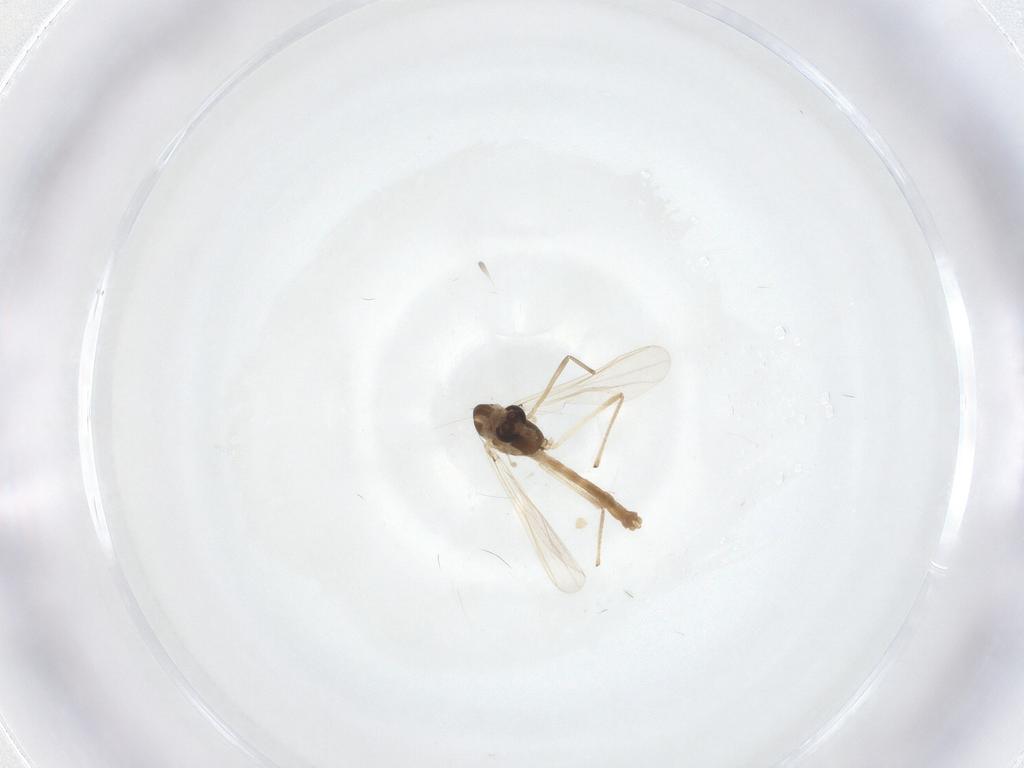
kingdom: Animalia
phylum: Arthropoda
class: Insecta
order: Diptera
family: Chironomidae
